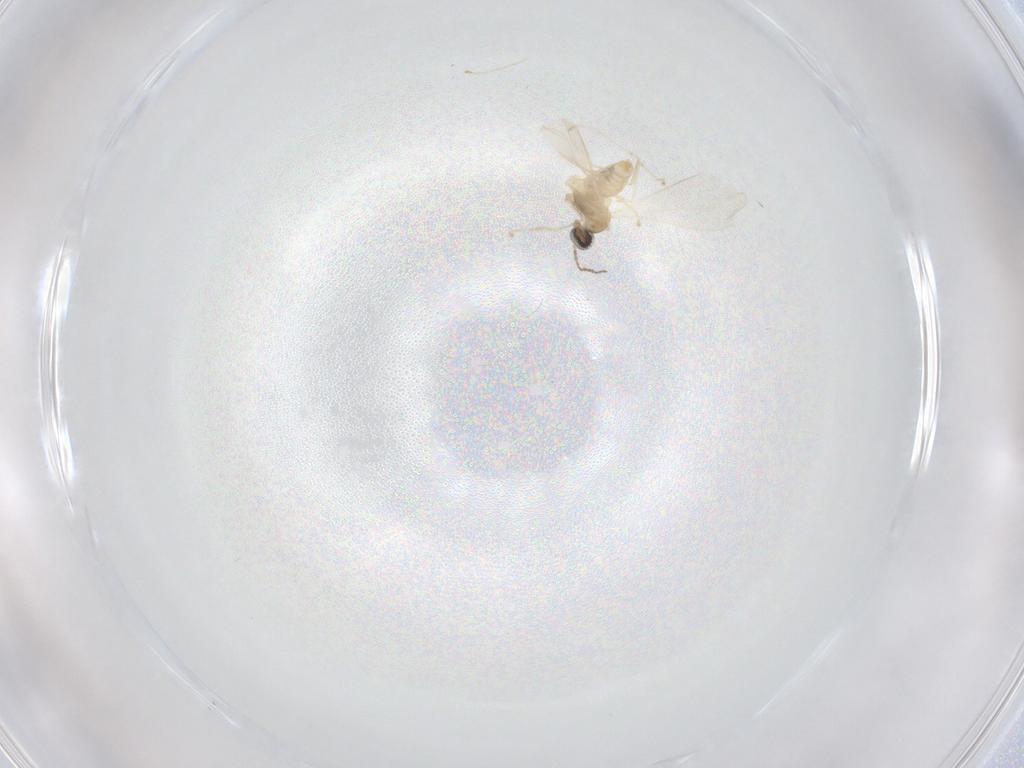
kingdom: Animalia
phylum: Arthropoda
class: Insecta
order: Diptera
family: Cecidomyiidae
